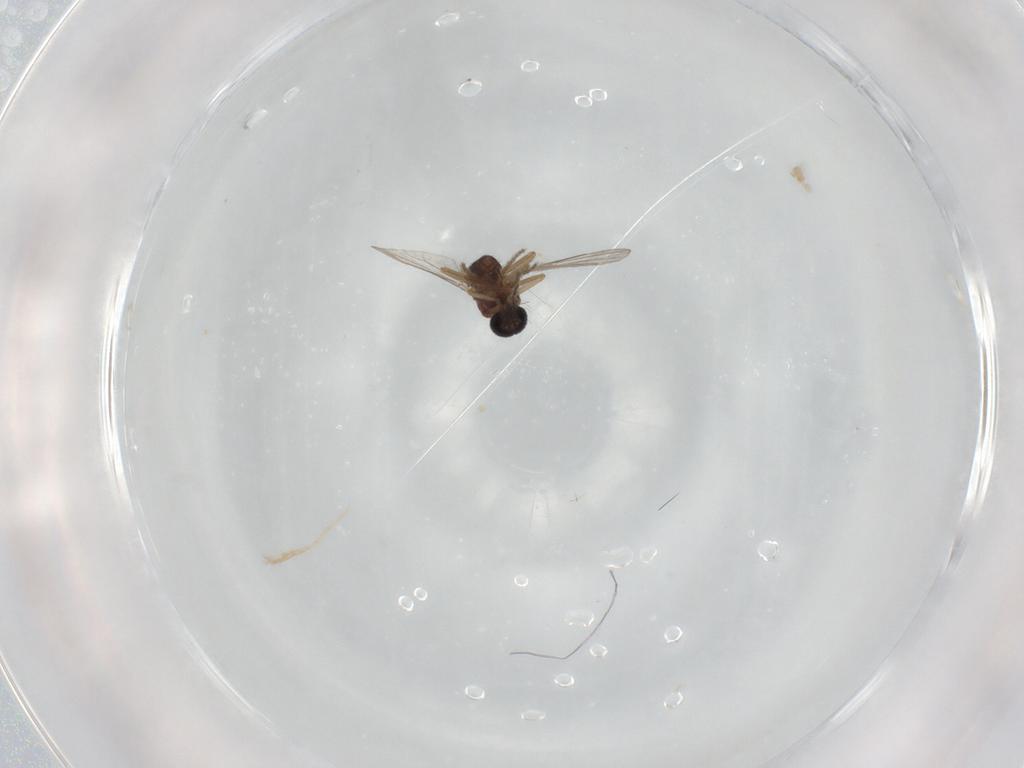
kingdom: Animalia
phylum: Arthropoda
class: Insecta
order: Diptera
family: Ceratopogonidae
